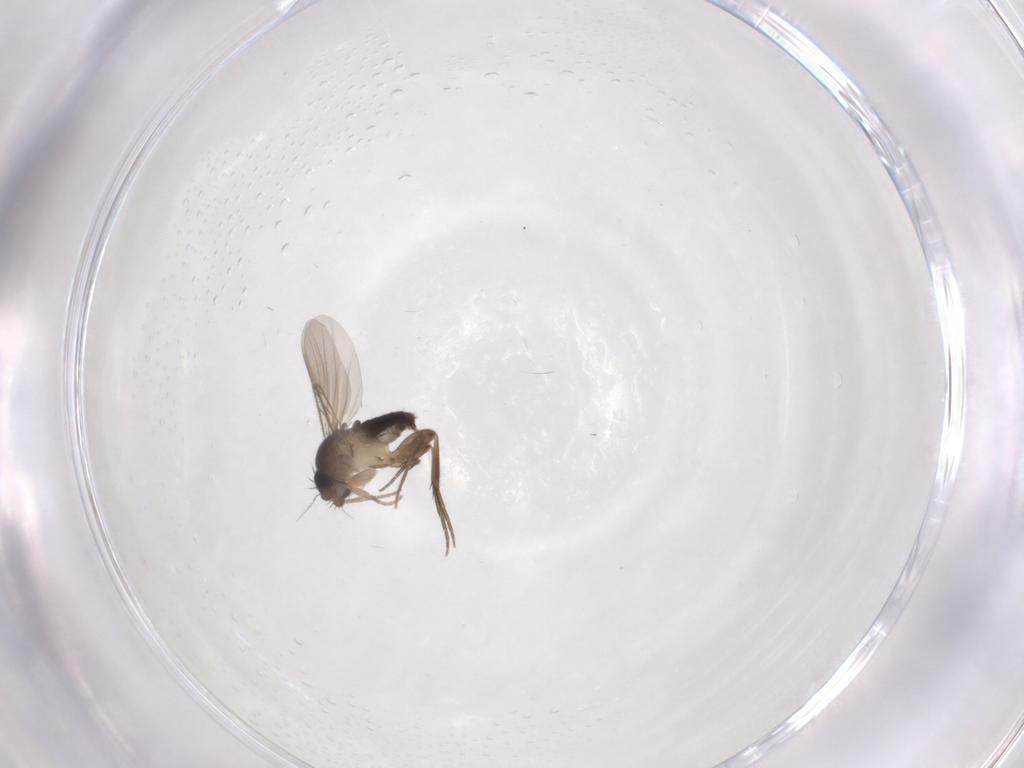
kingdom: Animalia
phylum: Arthropoda
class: Insecta
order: Diptera
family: Phoridae
